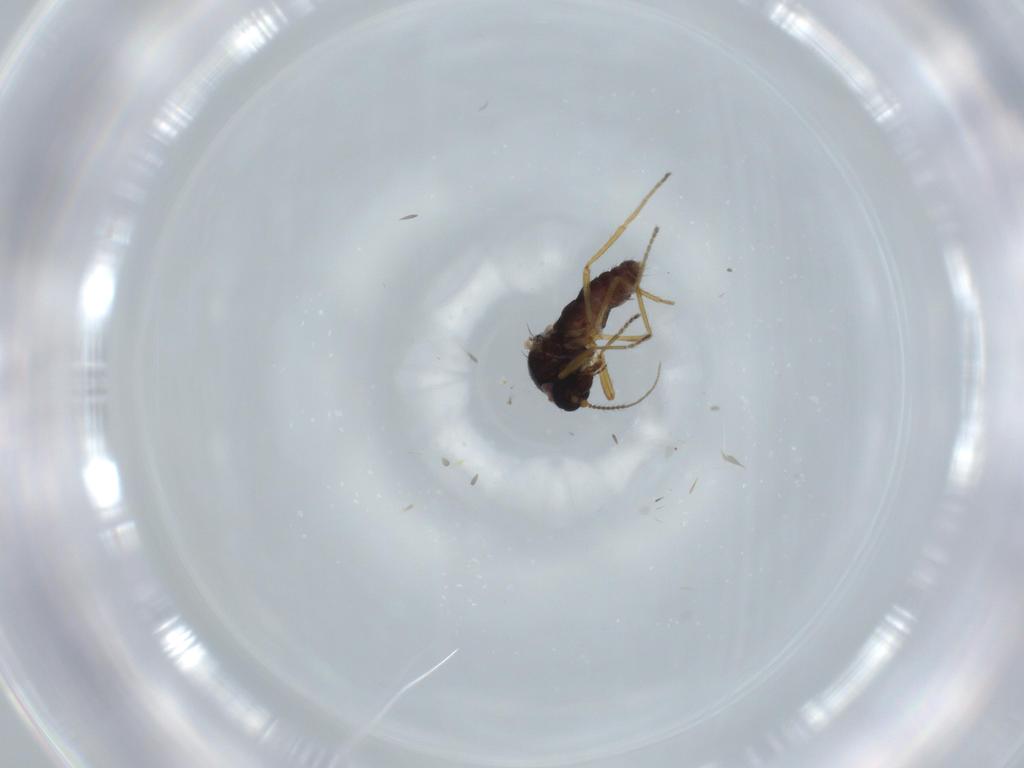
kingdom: Animalia
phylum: Arthropoda
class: Insecta
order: Diptera
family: Ceratopogonidae
